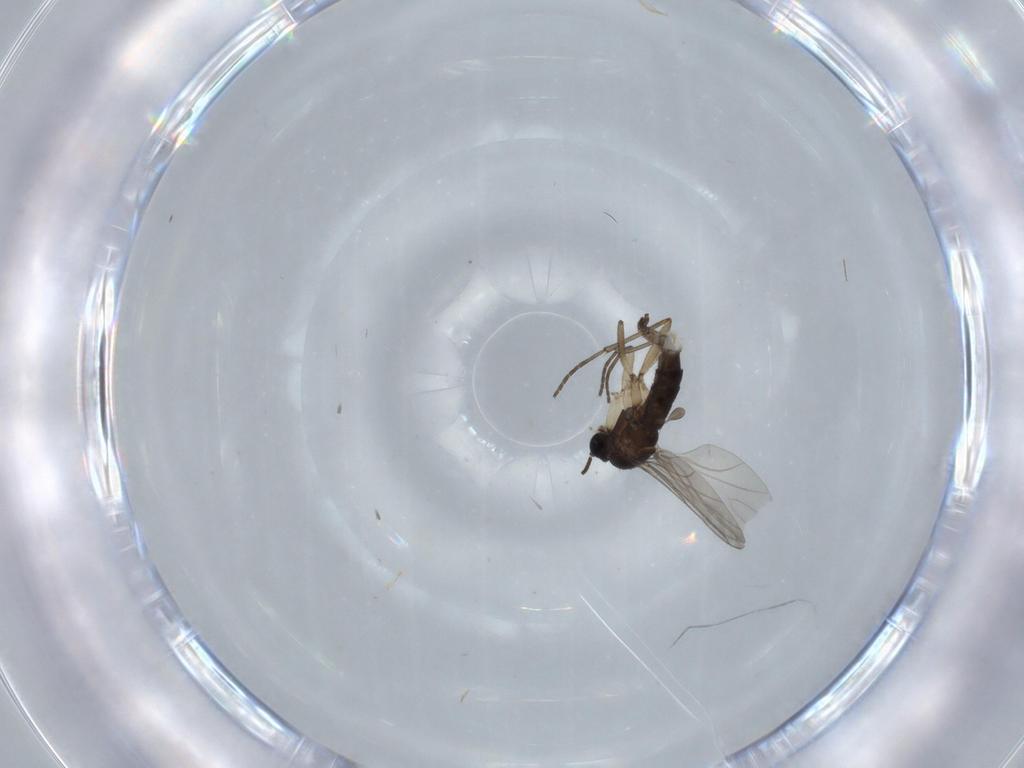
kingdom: Animalia
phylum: Arthropoda
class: Insecta
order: Diptera
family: Sciaridae
